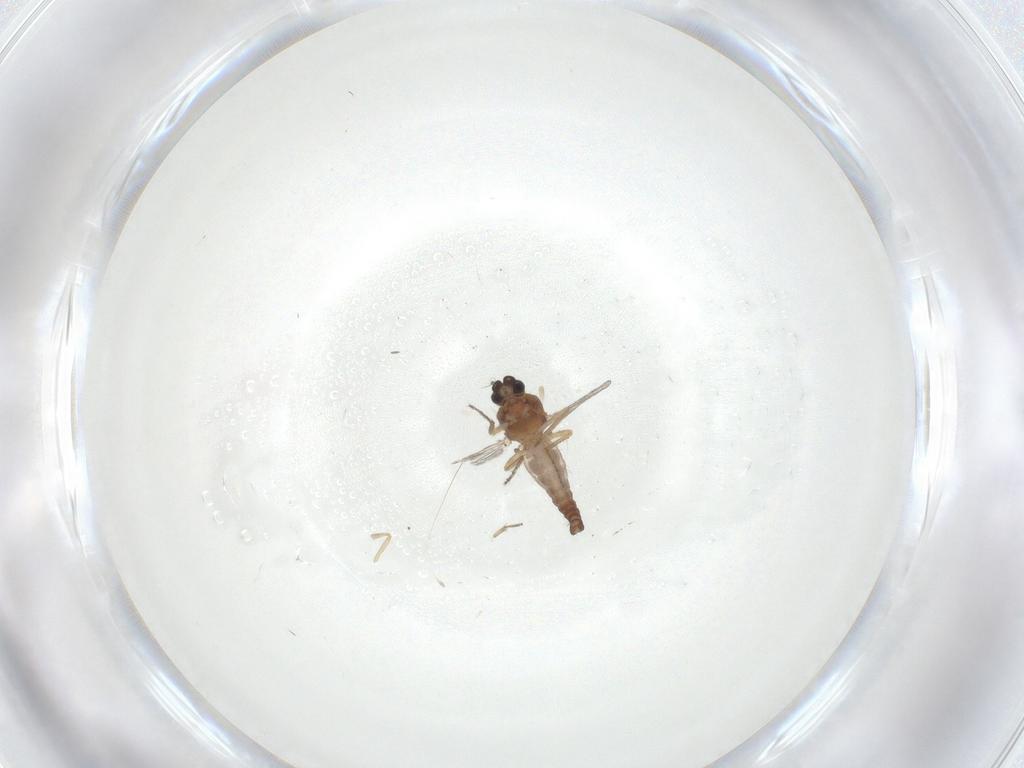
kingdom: Animalia
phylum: Arthropoda
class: Insecta
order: Diptera
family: Ceratopogonidae
